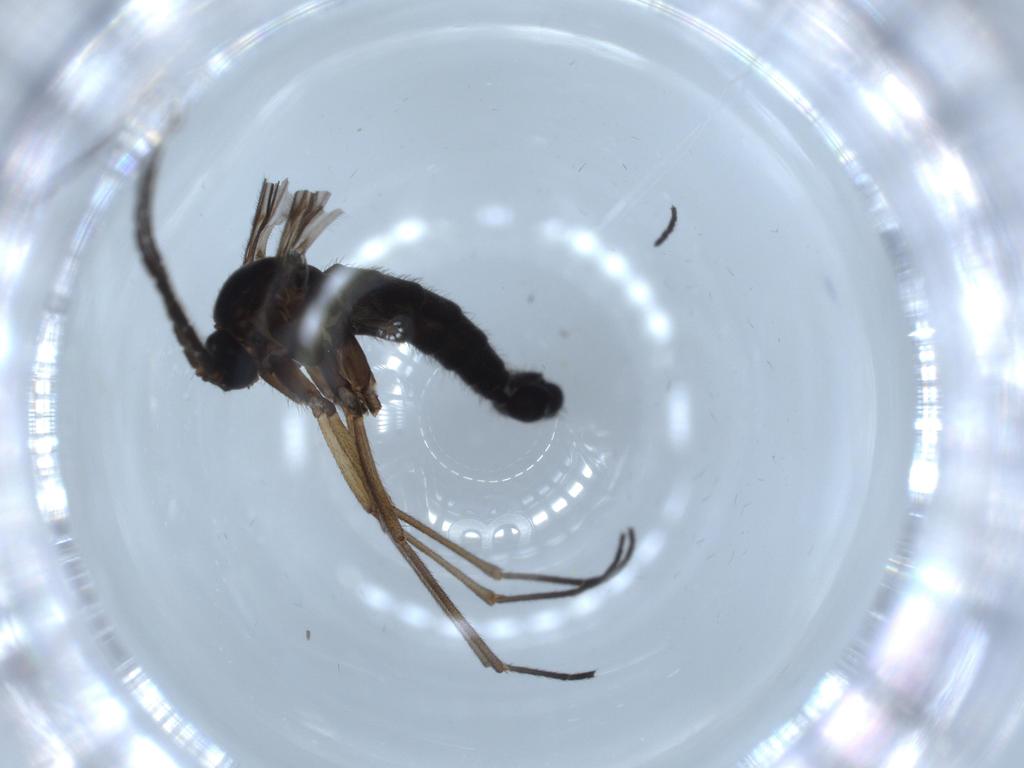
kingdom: Animalia
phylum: Arthropoda
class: Insecta
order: Diptera
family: Sciaridae
